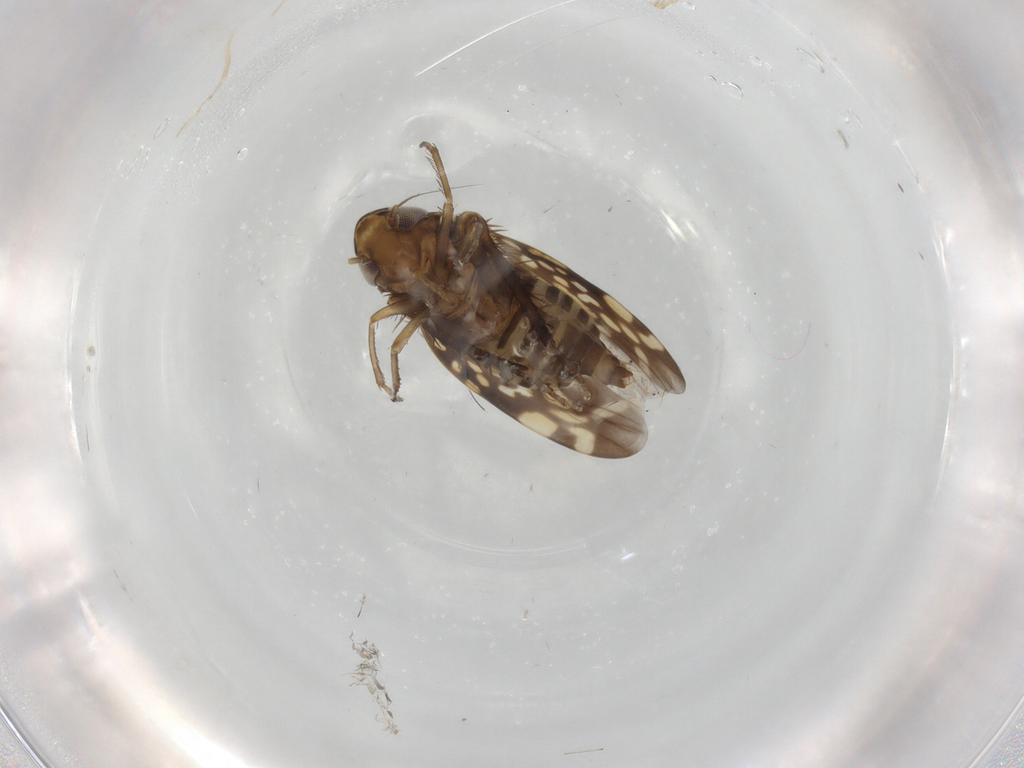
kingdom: Animalia
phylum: Arthropoda
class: Insecta
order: Hemiptera
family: Cicadellidae
